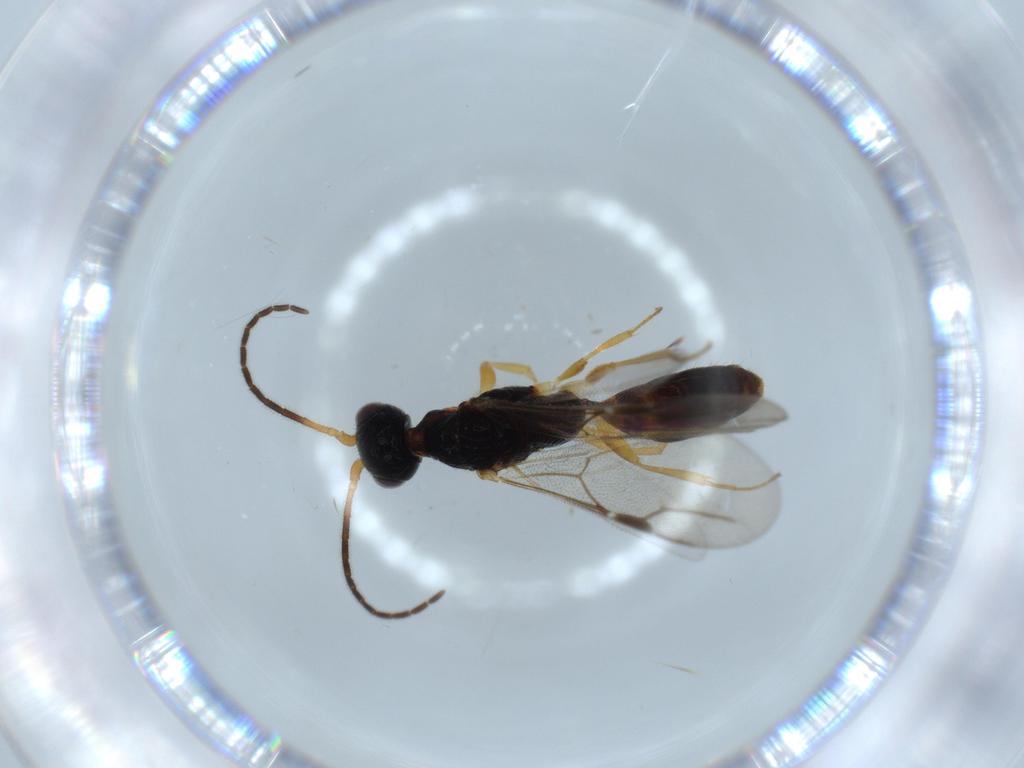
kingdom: Animalia
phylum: Arthropoda
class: Insecta
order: Hymenoptera
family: Bethylidae
